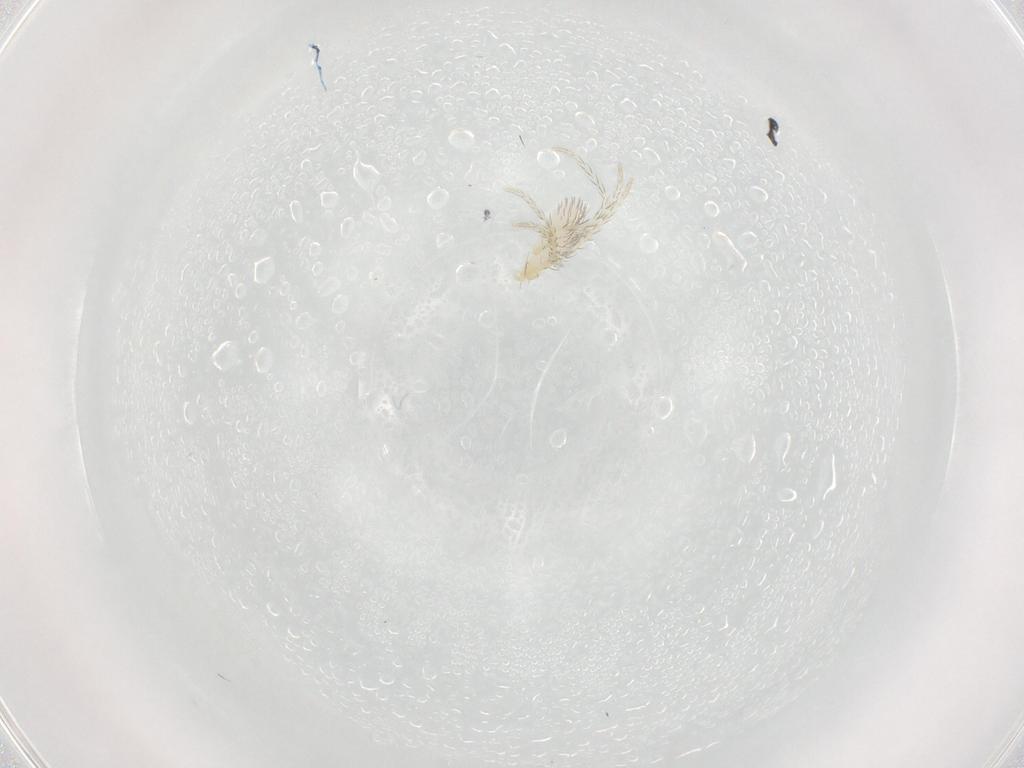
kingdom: Animalia
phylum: Arthropoda
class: Arachnida
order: Trombidiformes
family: Erythraeidae
